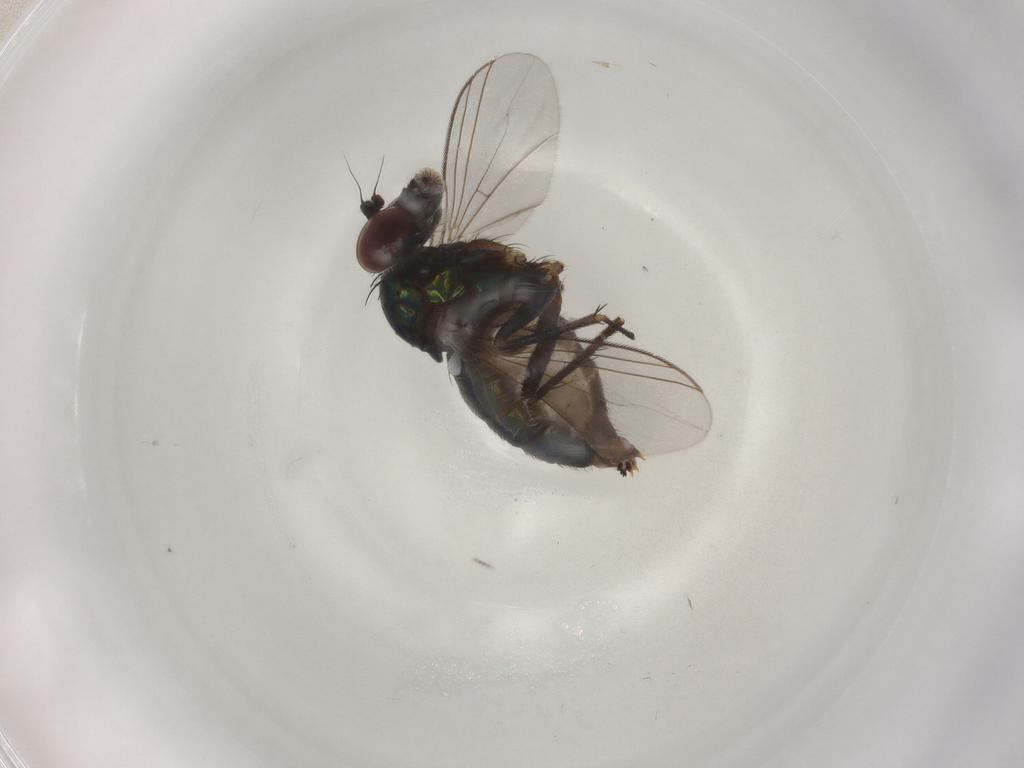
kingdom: Animalia
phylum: Arthropoda
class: Insecta
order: Diptera
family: Dolichopodidae
